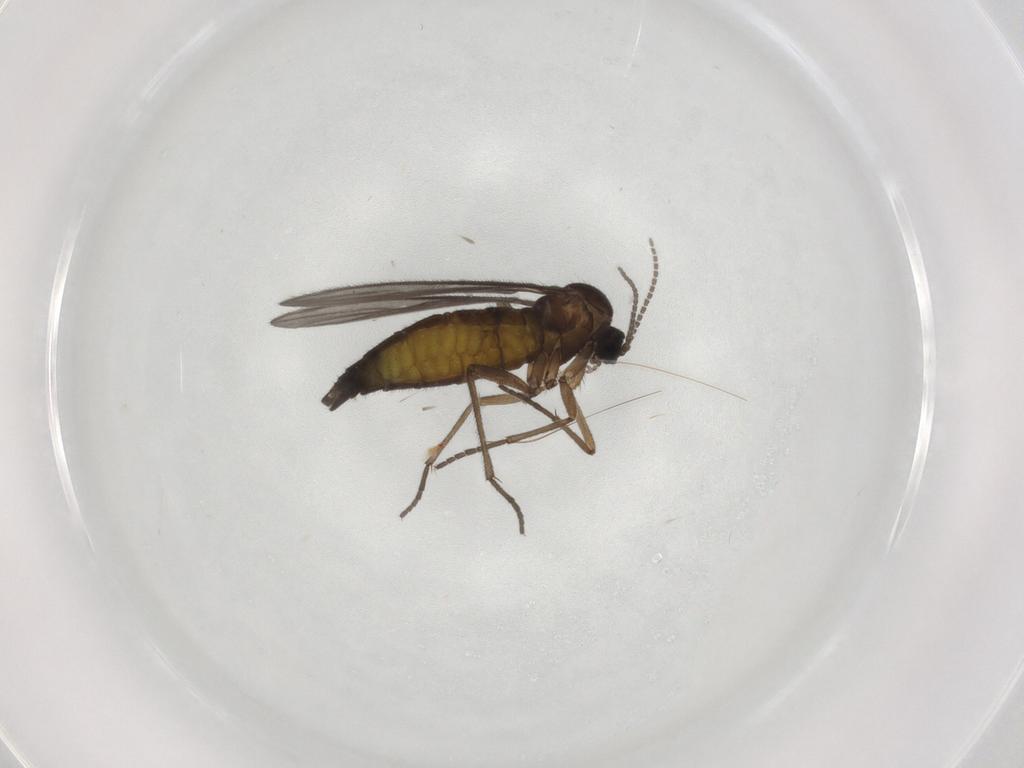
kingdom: Animalia
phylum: Arthropoda
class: Insecta
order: Diptera
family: Sciaridae
